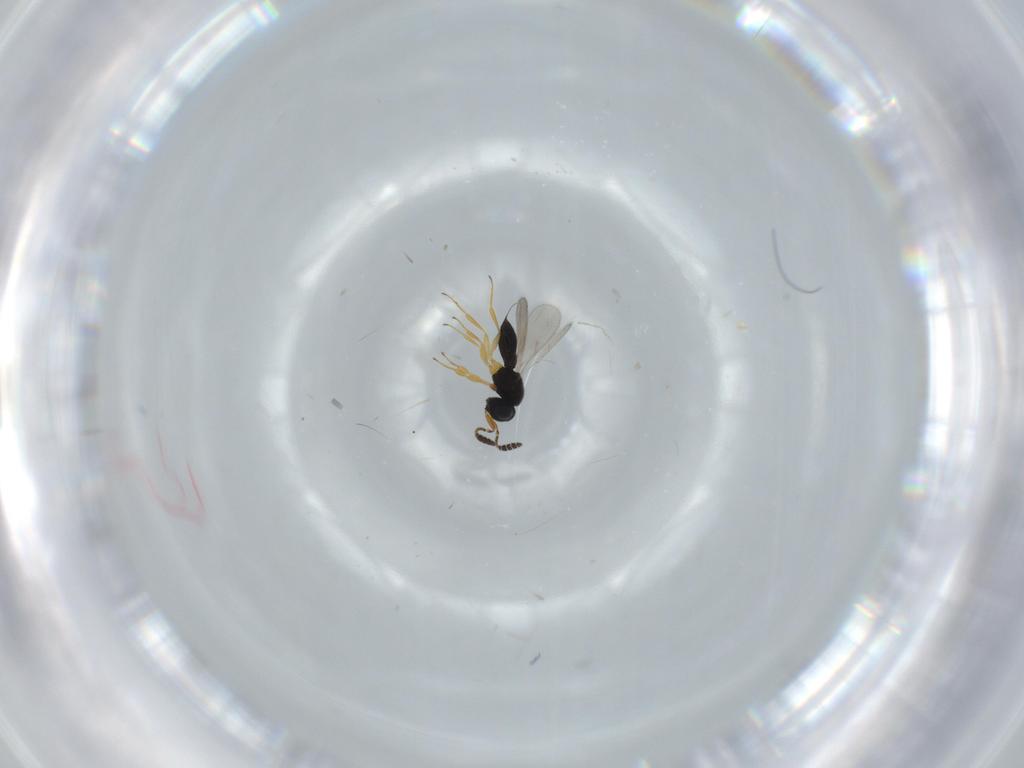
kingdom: Animalia
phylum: Arthropoda
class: Insecta
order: Hymenoptera
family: Scelionidae
